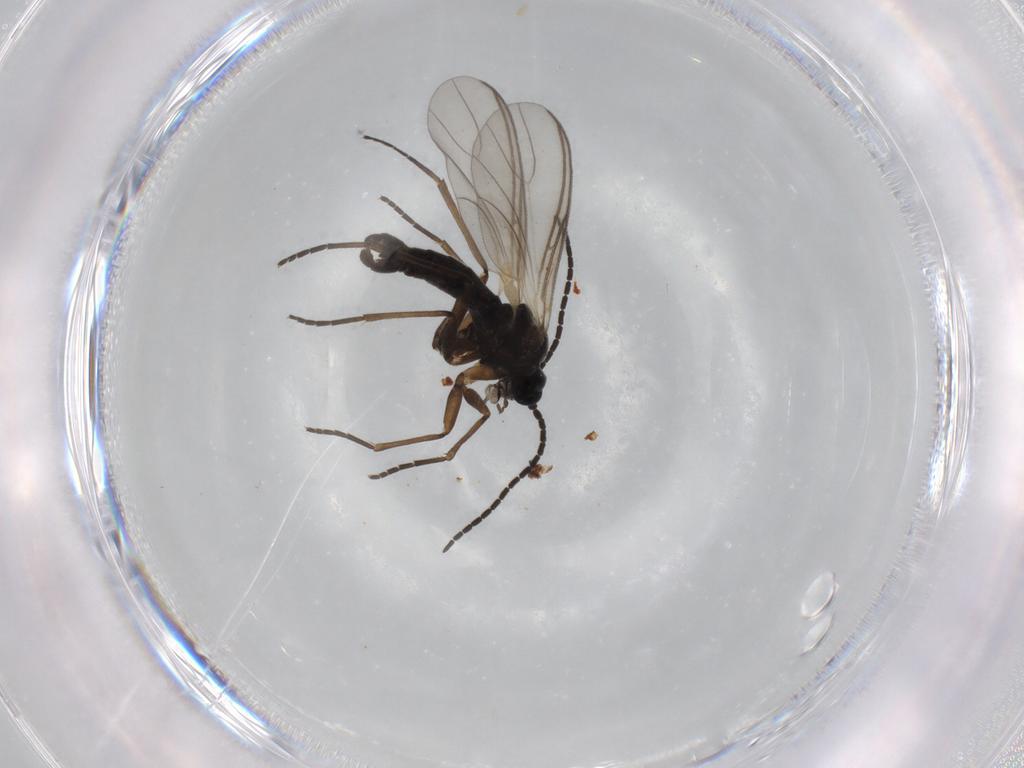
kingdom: Animalia
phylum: Arthropoda
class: Insecta
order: Diptera
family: Sciaridae
